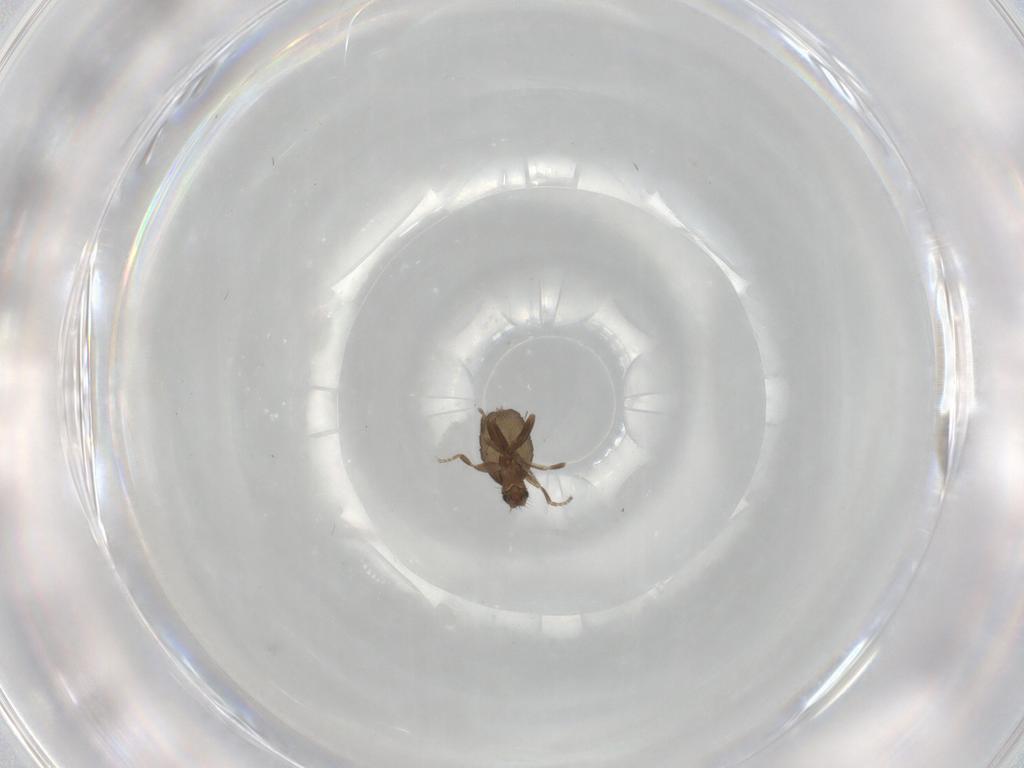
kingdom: Animalia
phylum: Arthropoda
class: Insecta
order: Diptera
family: Phoridae
